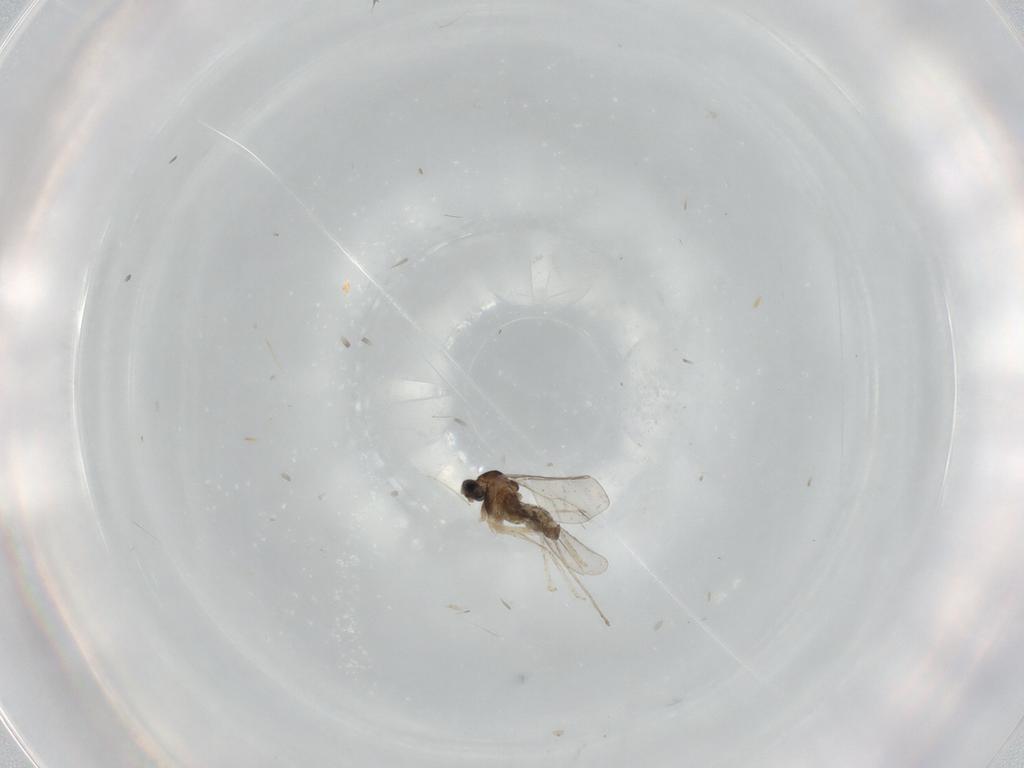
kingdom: Animalia
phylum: Arthropoda
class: Insecta
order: Diptera
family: Cecidomyiidae
